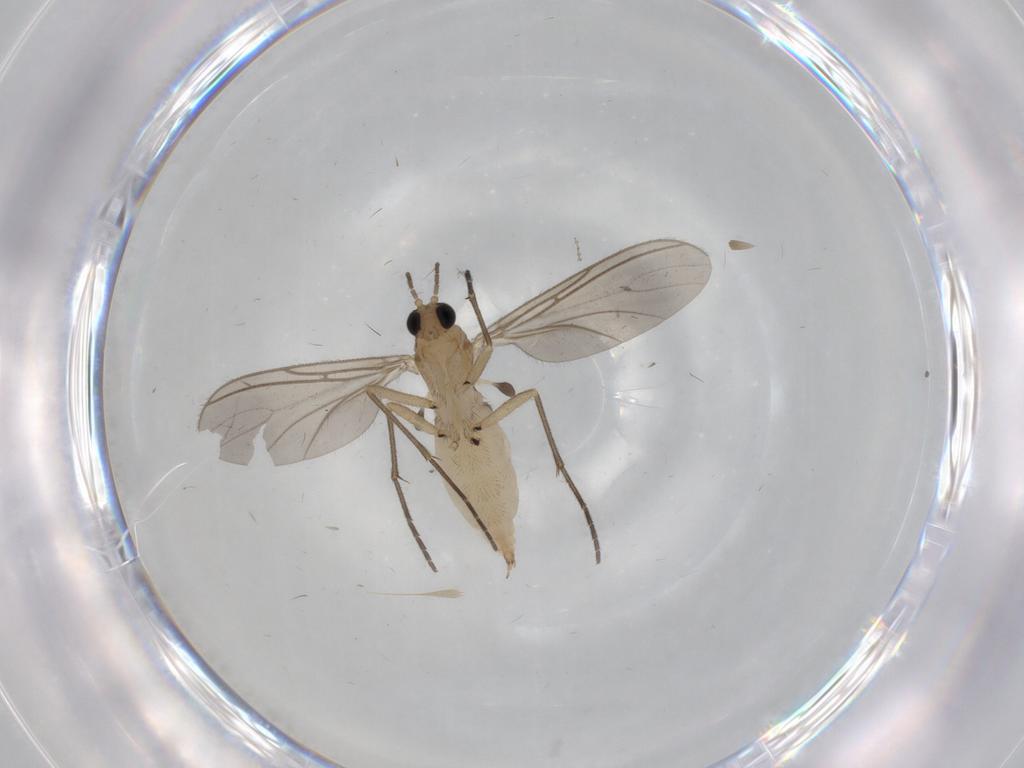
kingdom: Animalia
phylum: Arthropoda
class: Insecta
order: Diptera
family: Sciaridae
